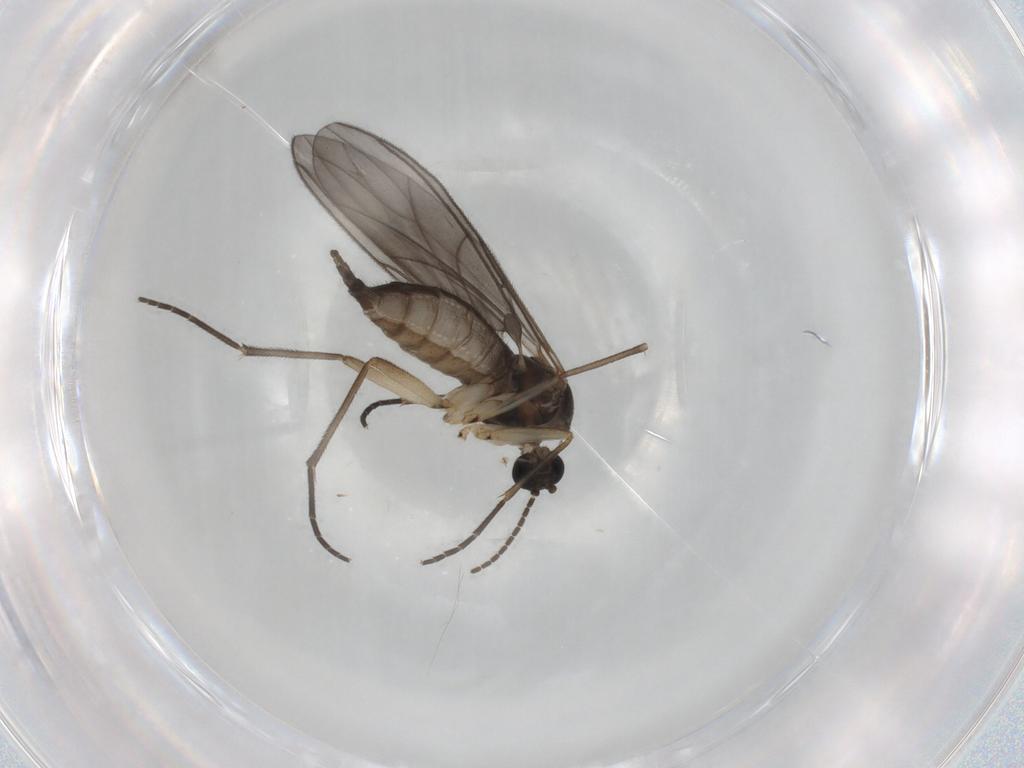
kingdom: Animalia
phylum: Arthropoda
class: Insecta
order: Diptera
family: Sciaridae
